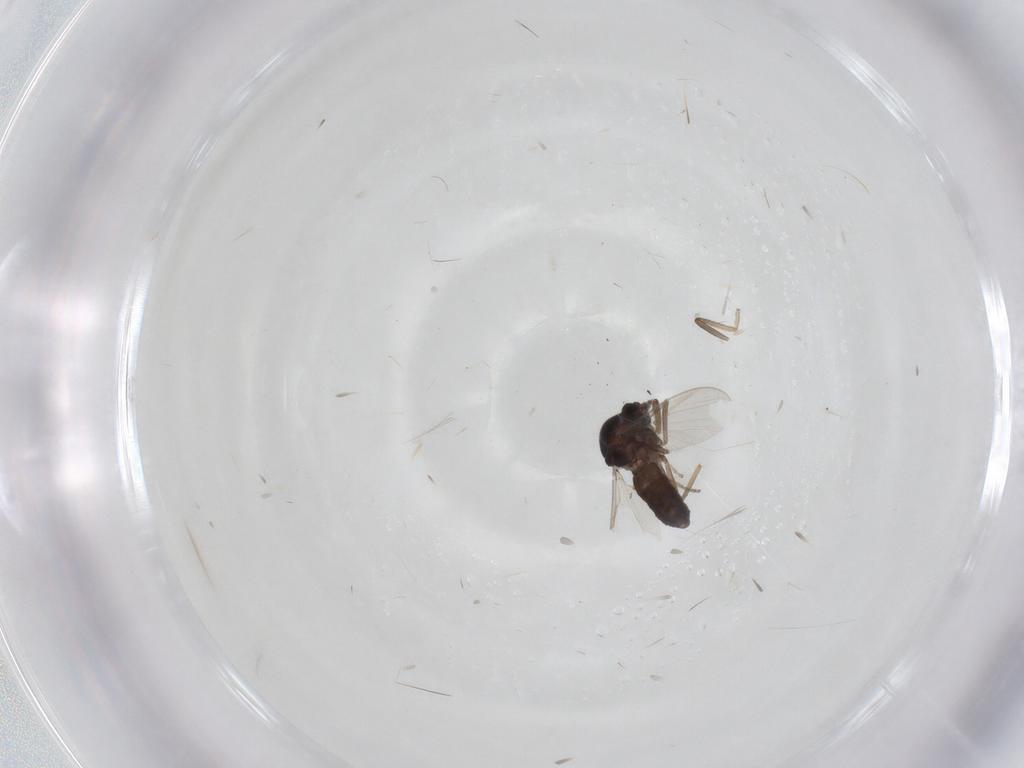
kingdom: Animalia
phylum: Arthropoda
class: Insecta
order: Diptera
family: Ceratopogonidae
